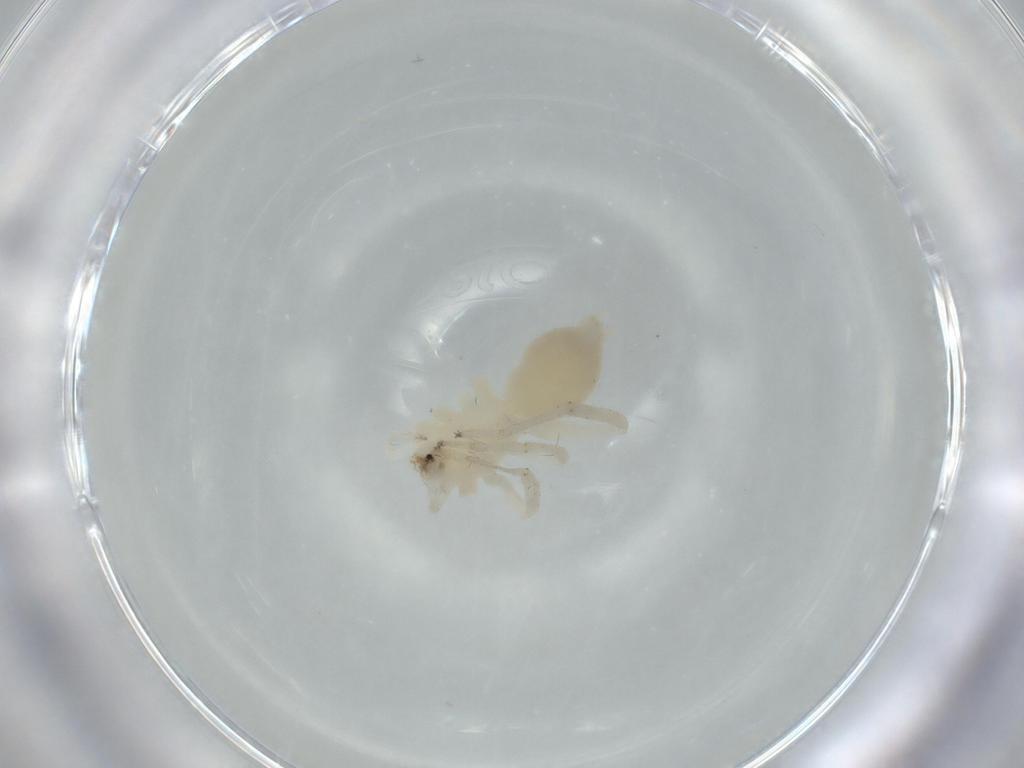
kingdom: Animalia
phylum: Arthropoda
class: Arachnida
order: Araneae
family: Anyphaenidae
